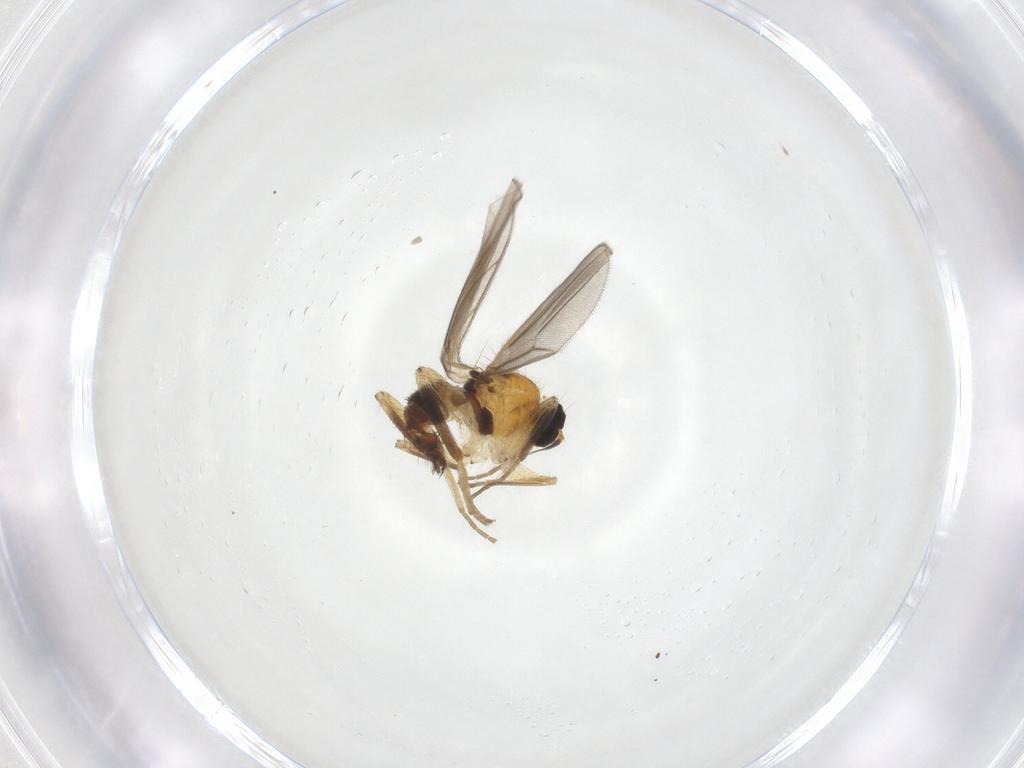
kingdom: Animalia
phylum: Arthropoda
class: Insecta
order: Diptera
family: Hybotidae
